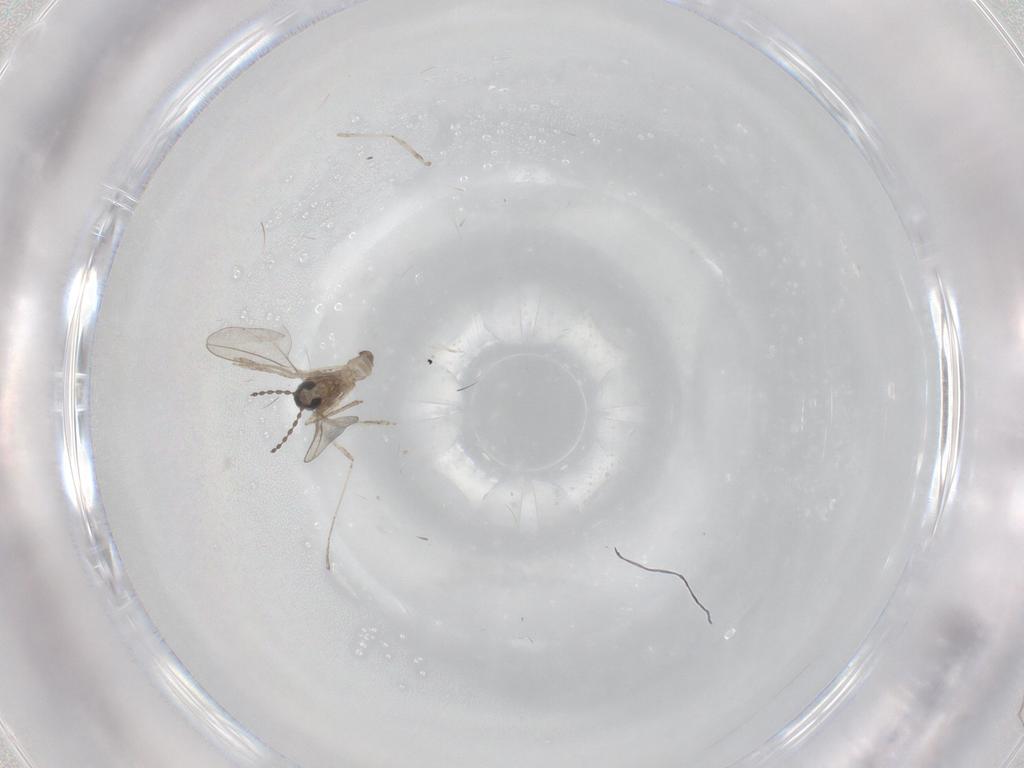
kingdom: Animalia
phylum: Arthropoda
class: Insecta
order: Diptera
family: Ceratopogonidae
